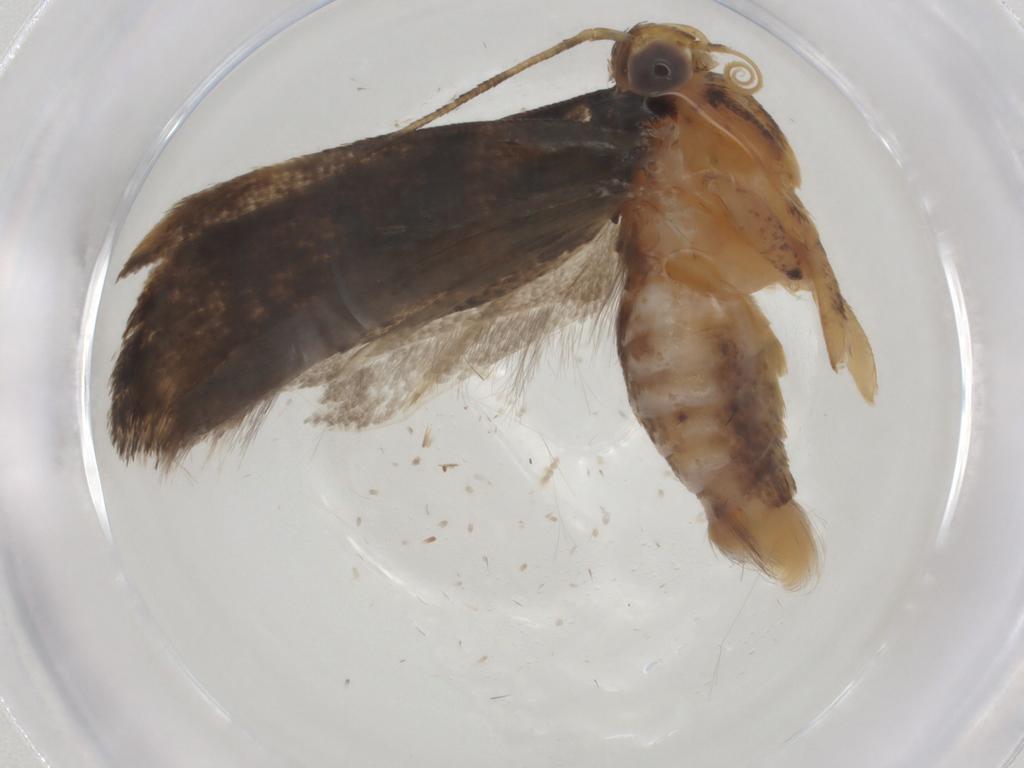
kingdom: Animalia
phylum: Arthropoda
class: Insecta
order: Lepidoptera
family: Gelechiidae
